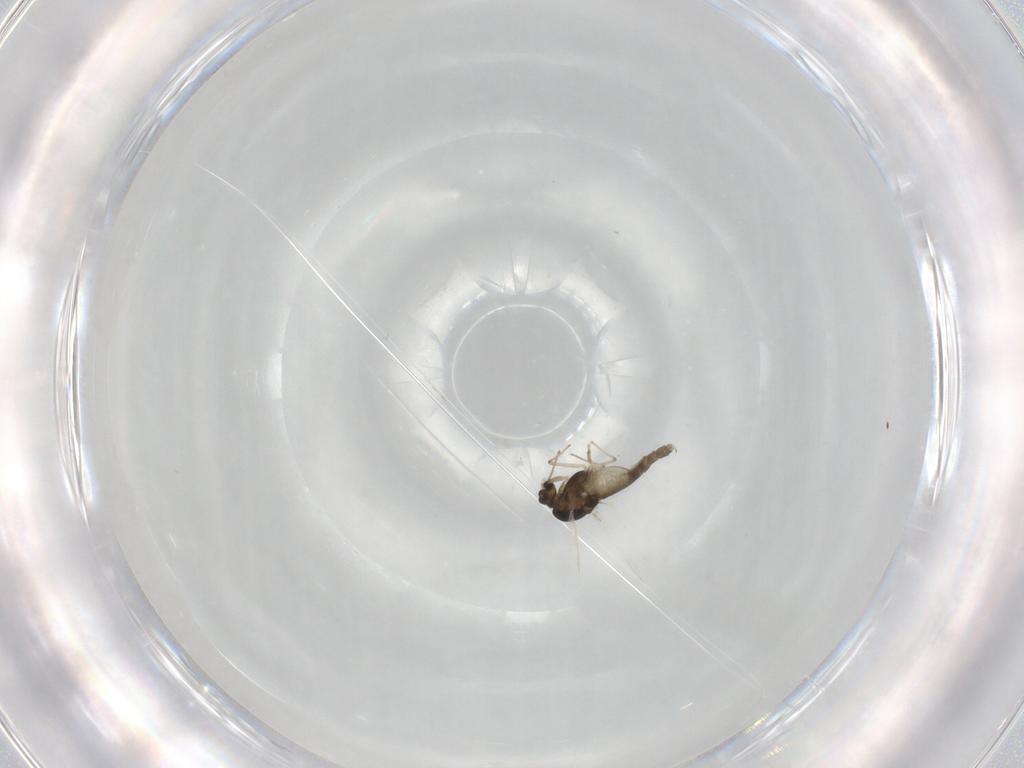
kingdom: Animalia
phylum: Arthropoda
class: Insecta
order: Diptera
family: Chironomidae
